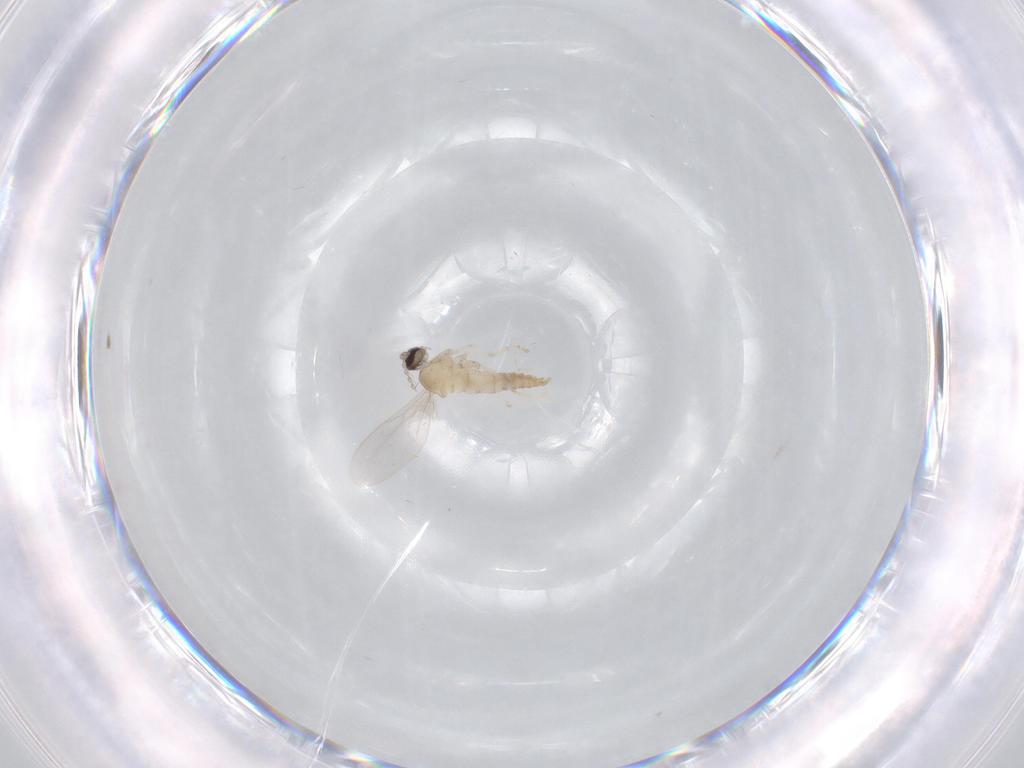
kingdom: Animalia
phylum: Arthropoda
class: Insecta
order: Diptera
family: Cecidomyiidae
